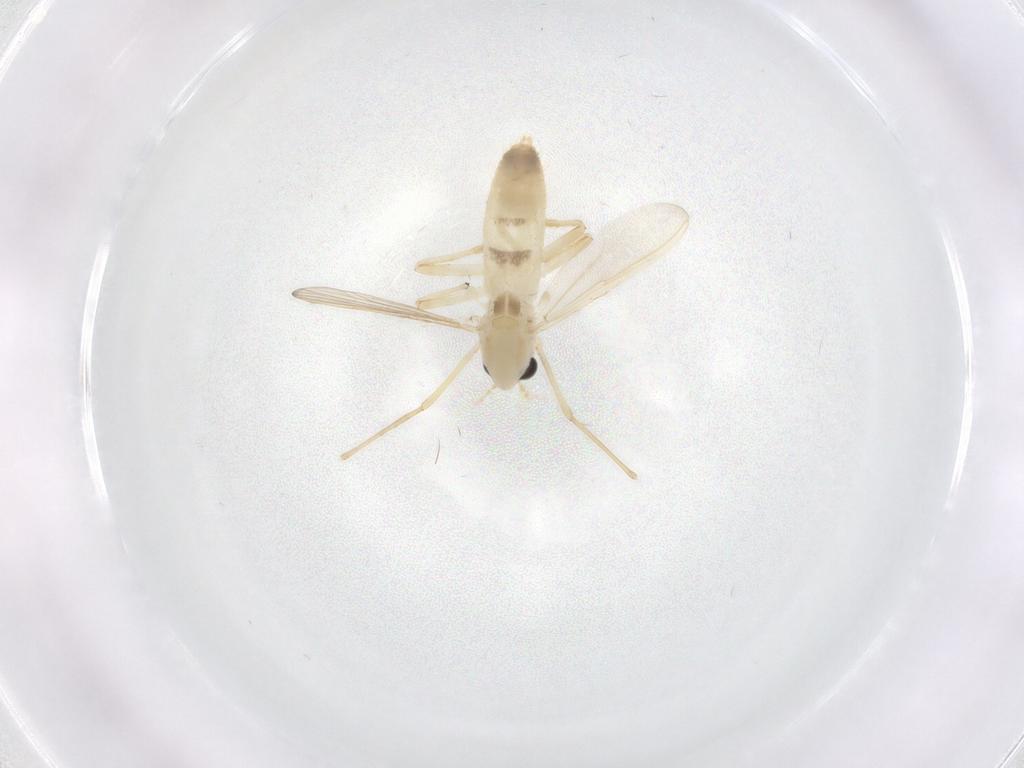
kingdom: Animalia
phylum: Arthropoda
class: Insecta
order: Diptera
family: Chironomidae
